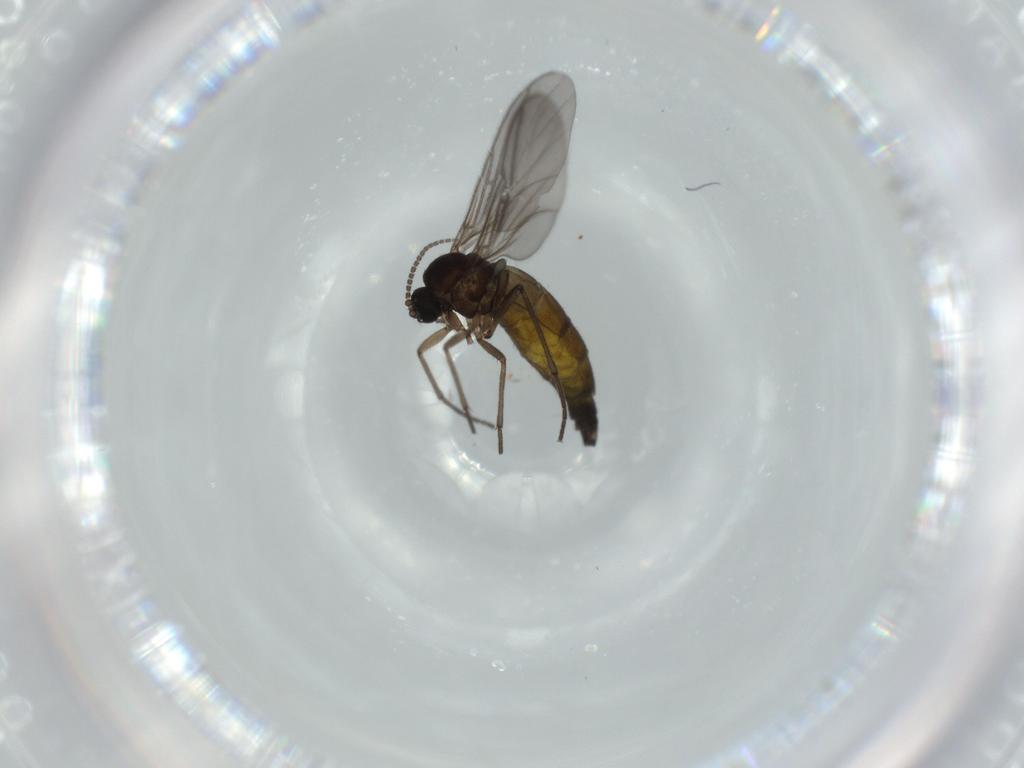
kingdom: Animalia
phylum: Arthropoda
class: Insecta
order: Diptera
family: Sciaridae
